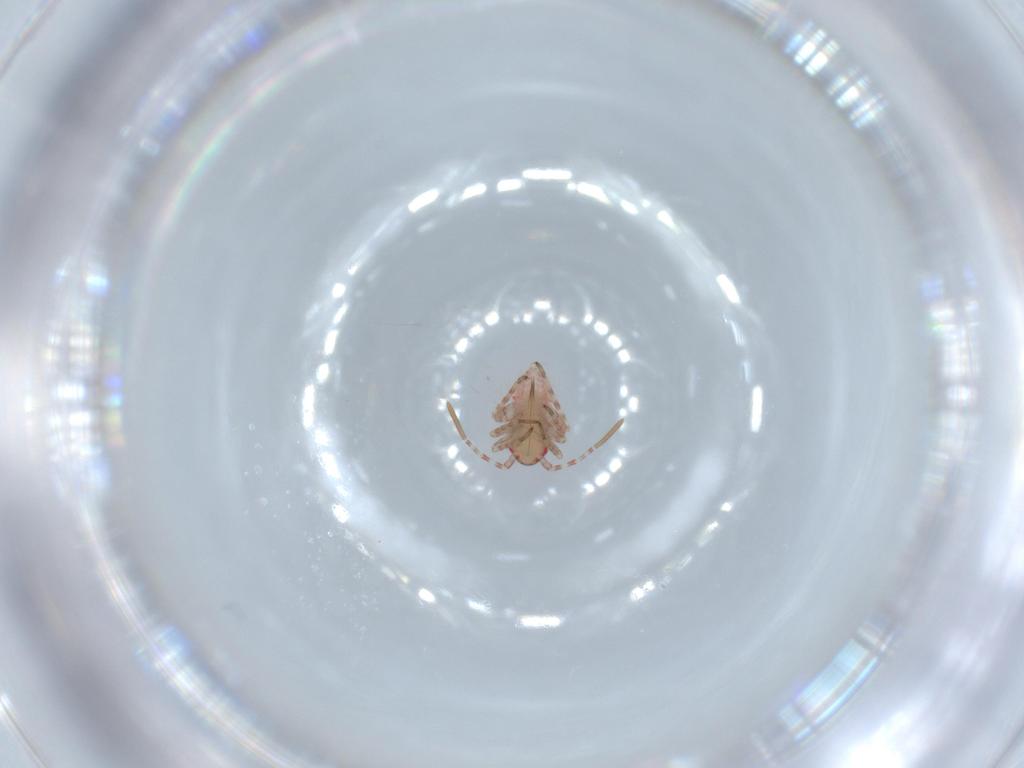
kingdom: Animalia
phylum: Arthropoda
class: Insecta
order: Hemiptera
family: Miridae
